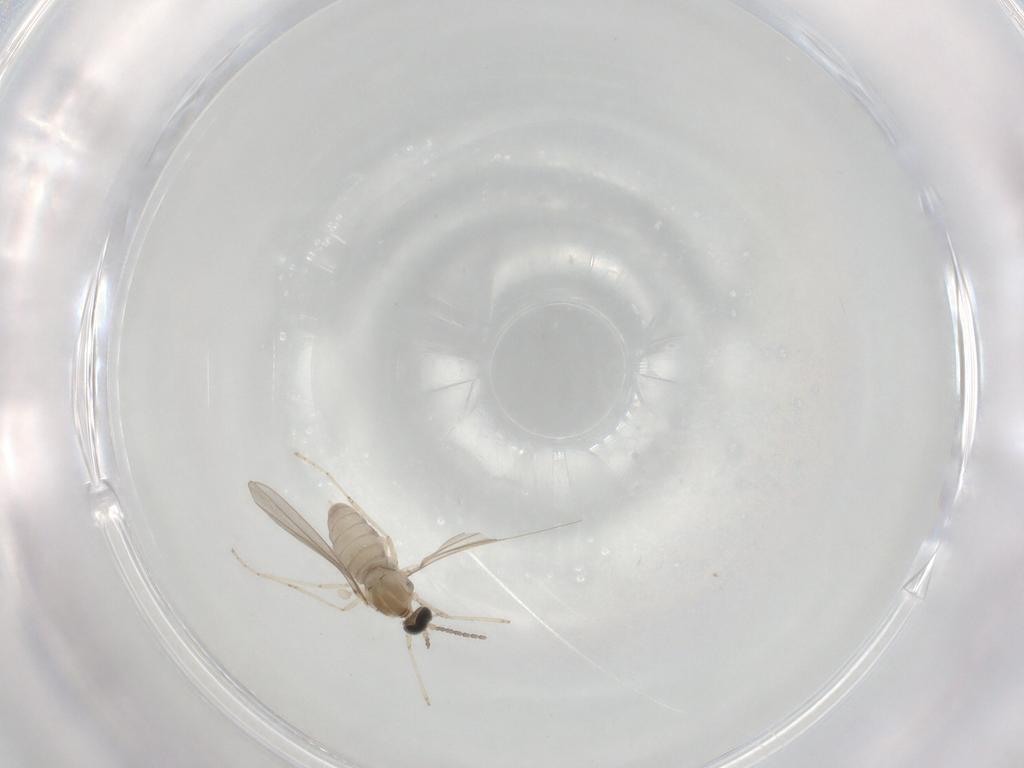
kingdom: Animalia
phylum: Arthropoda
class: Insecta
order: Diptera
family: Cecidomyiidae
